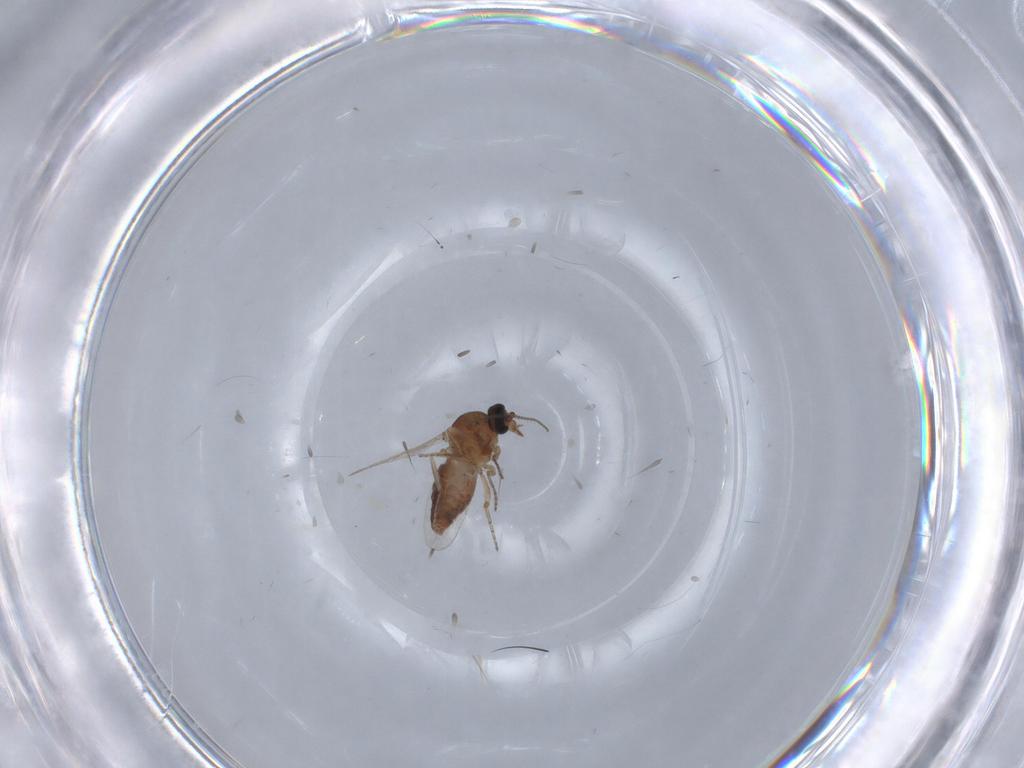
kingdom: Animalia
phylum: Arthropoda
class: Insecta
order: Diptera
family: Ceratopogonidae
